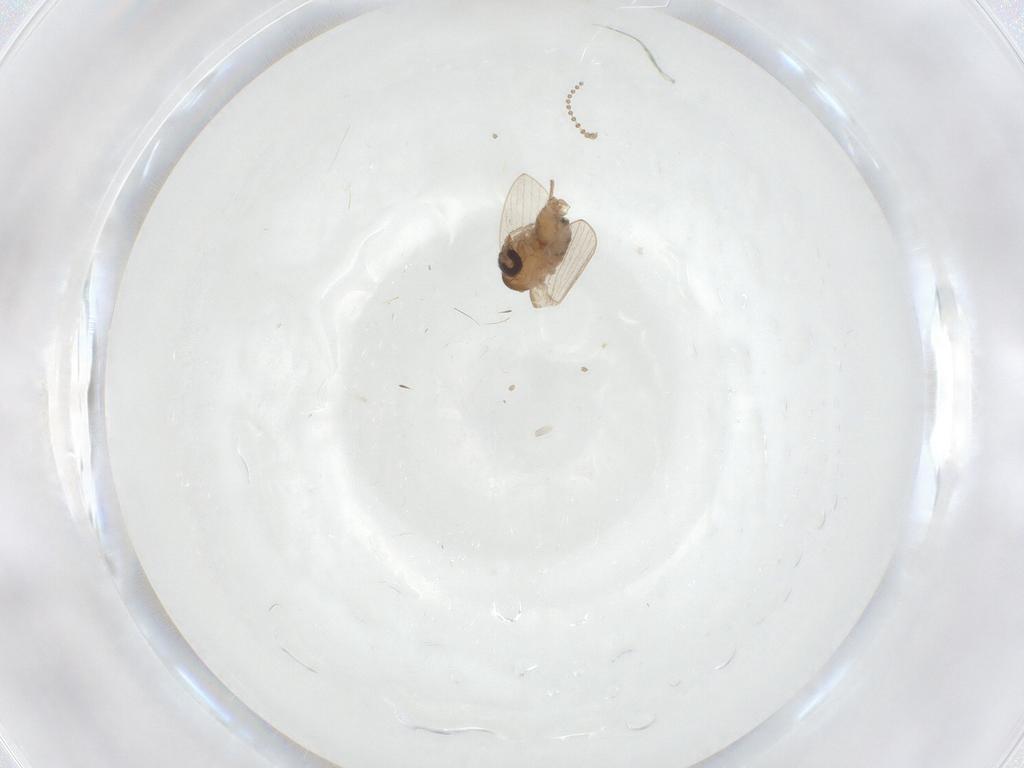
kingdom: Animalia
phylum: Arthropoda
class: Insecta
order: Diptera
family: Psychodidae
